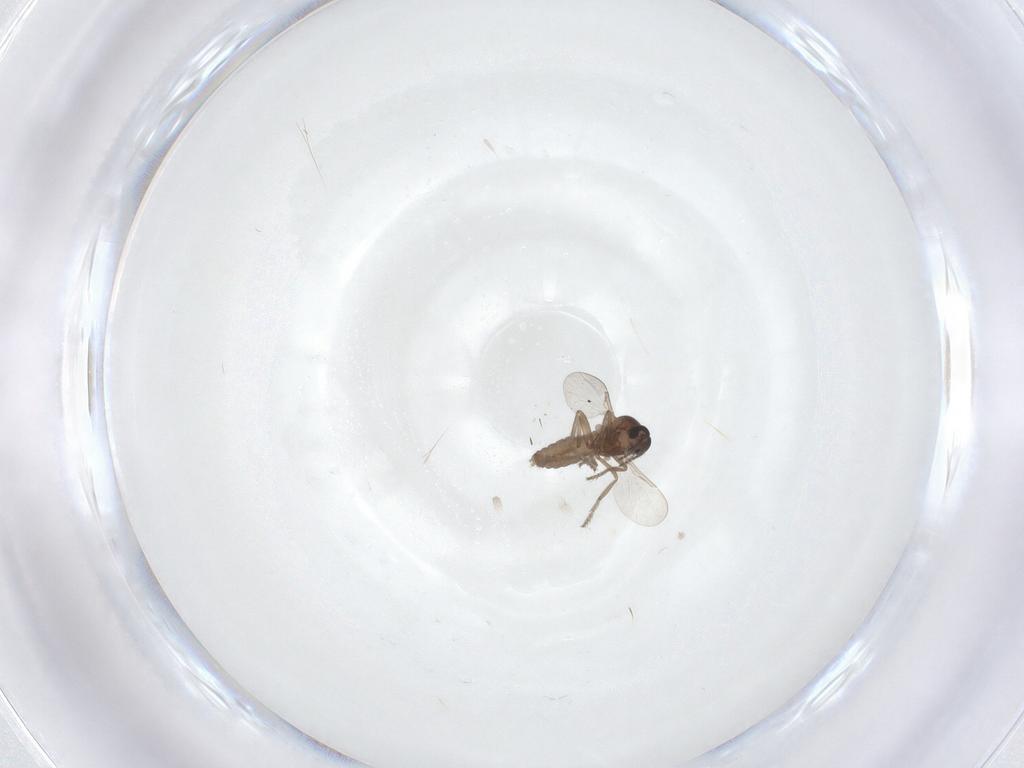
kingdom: Animalia
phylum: Arthropoda
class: Insecta
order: Diptera
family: Ceratopogonidae
